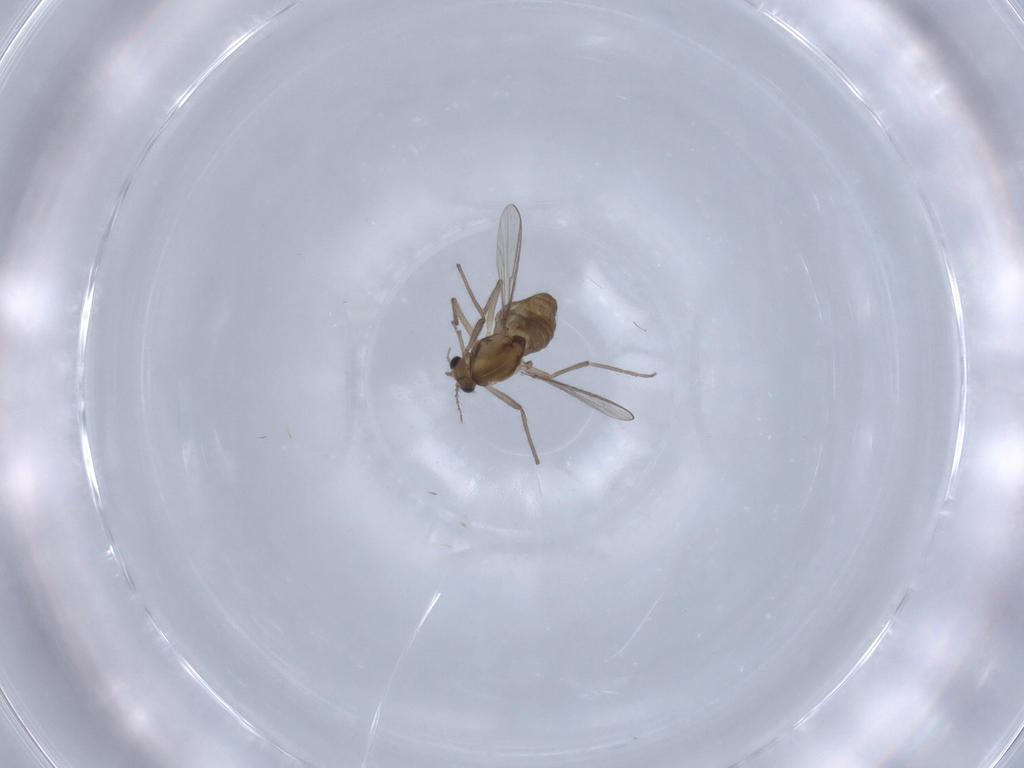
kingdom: Animalia
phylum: Arthropoda
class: Insecta
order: Diptera
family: Chironomidae
